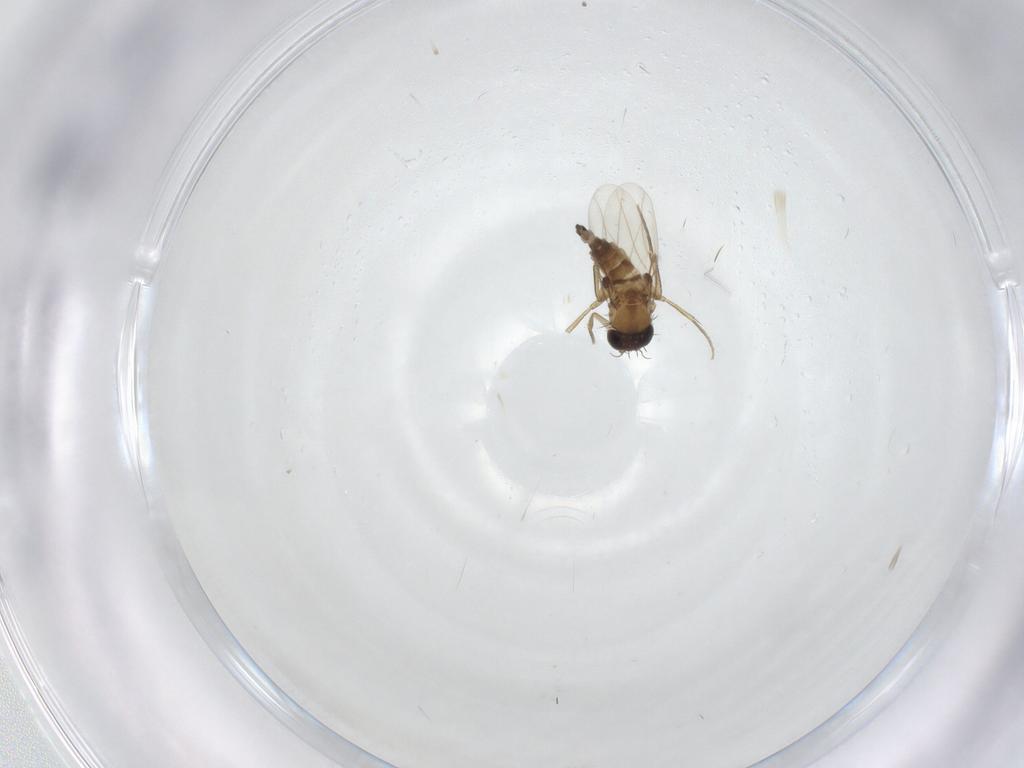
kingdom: Animalia
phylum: Arthropoda
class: Insecta
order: Diptera
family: Phoridae
